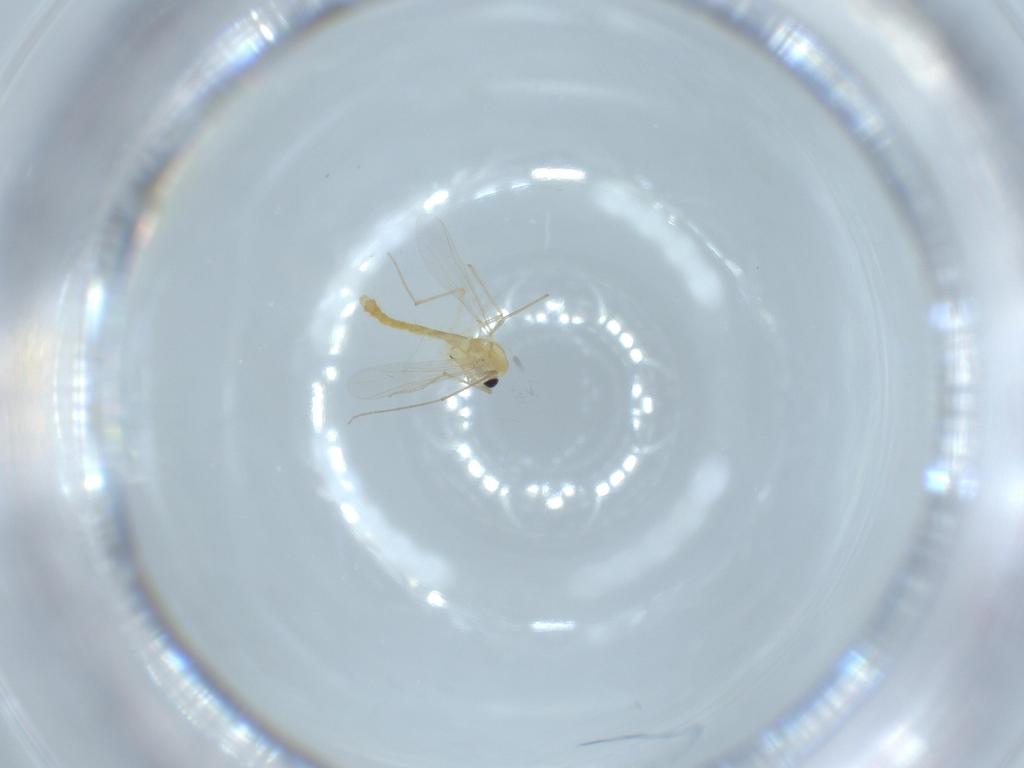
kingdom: Animalia
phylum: Arthropoda
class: Insecta
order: Diptera
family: Chironomidae
